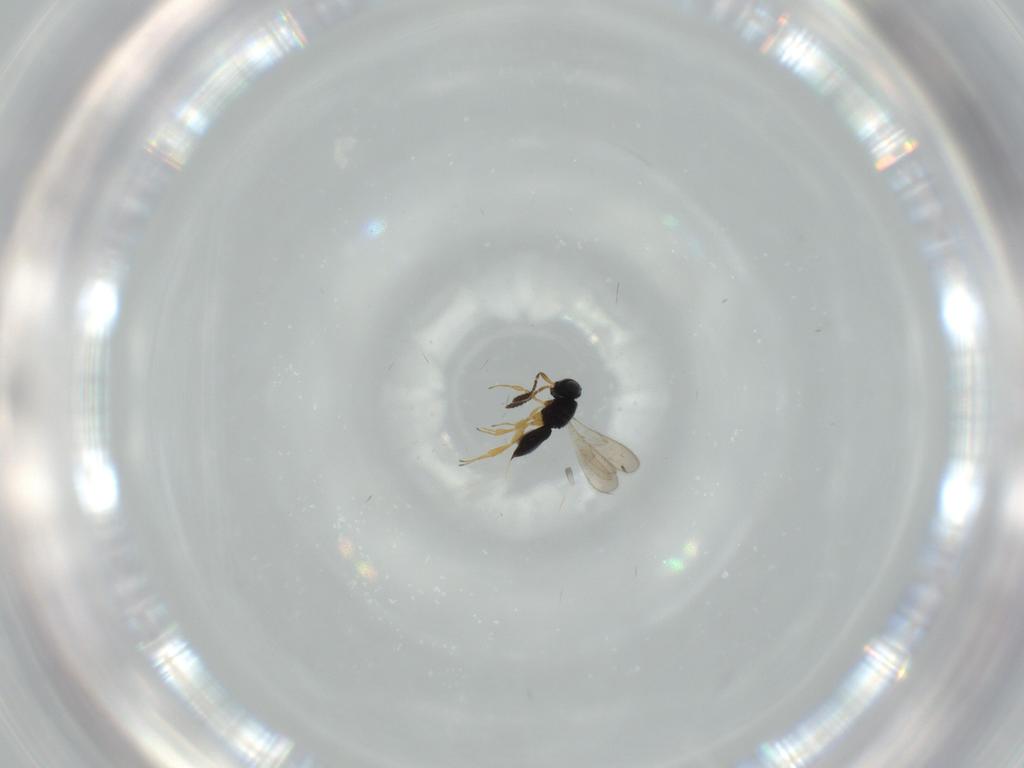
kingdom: Animalia
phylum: Arthropoda
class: Insecta
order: Hymenoptera
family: Scelionidae
